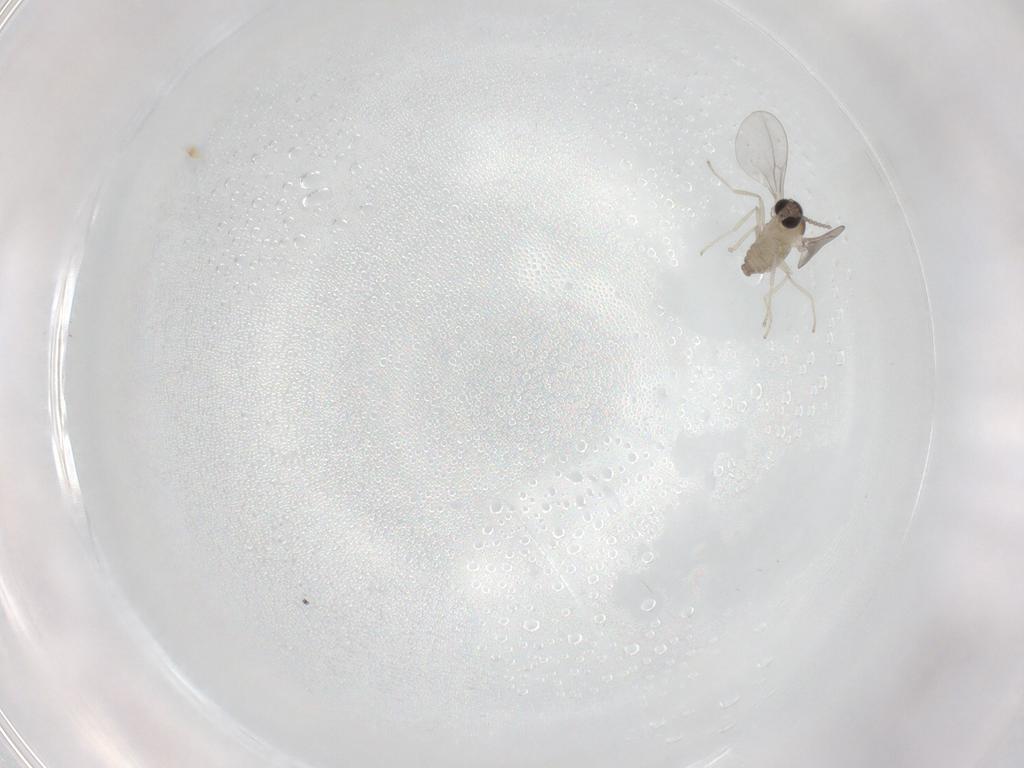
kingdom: Animalia
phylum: Arthropoda
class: Insecta
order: Diptera
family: Cecidomyiidae
